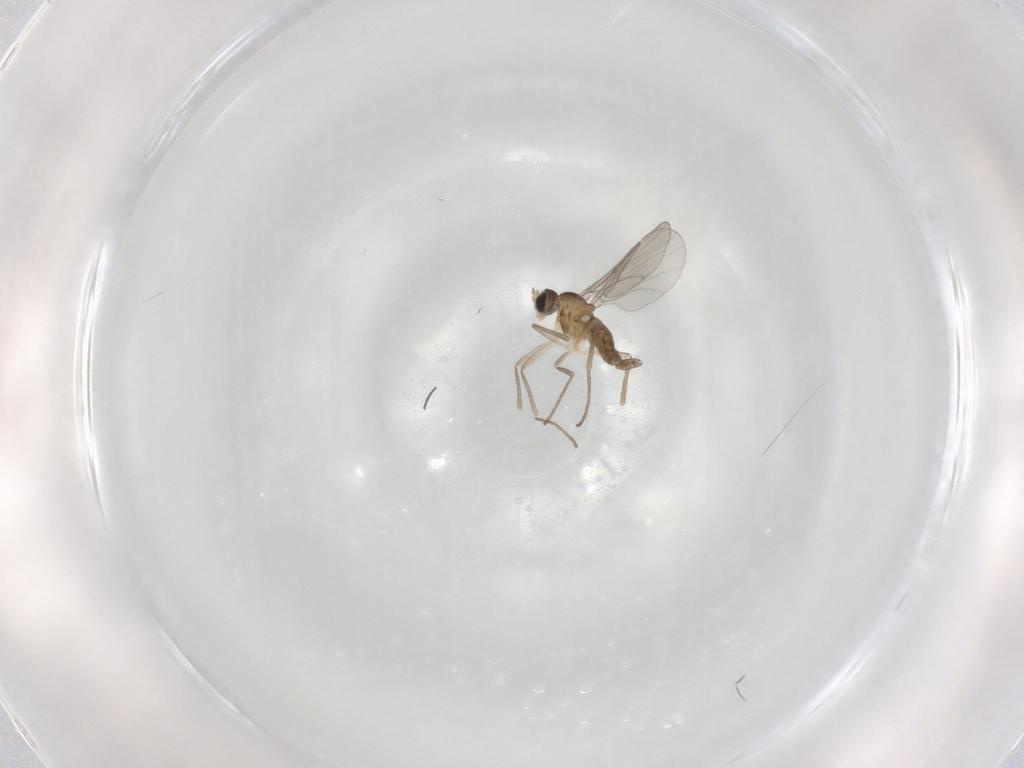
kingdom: Animalia
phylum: Arthropoda
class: Insecta
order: Diptera
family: Cecidomyiidae
